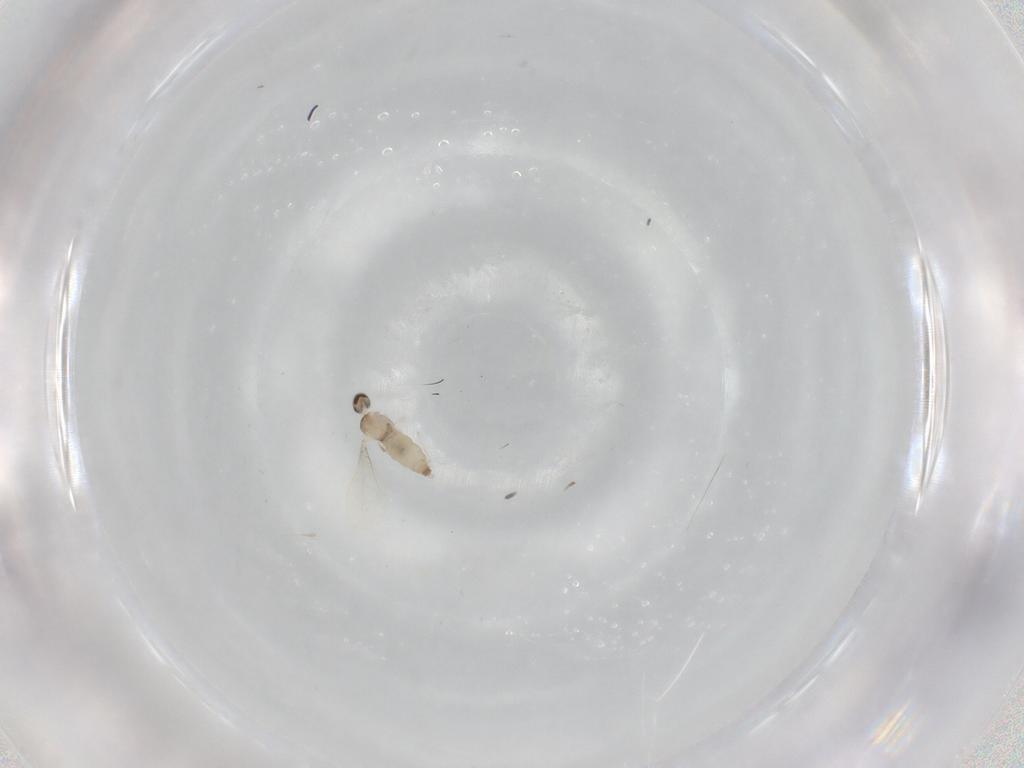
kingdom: Animalia
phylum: Arthropoda
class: Insecta
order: Diptera
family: Cecidomyiidae
